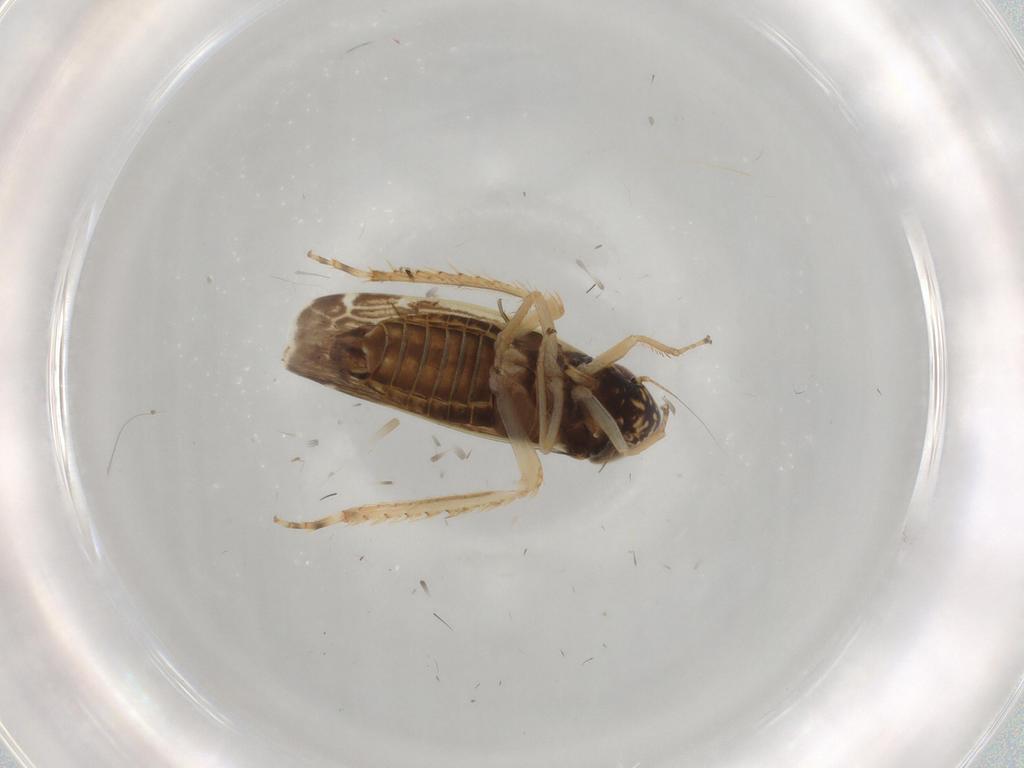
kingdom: Animalia
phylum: Arthropoda
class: Insecta
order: Hemiptera
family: Cicadellidae
